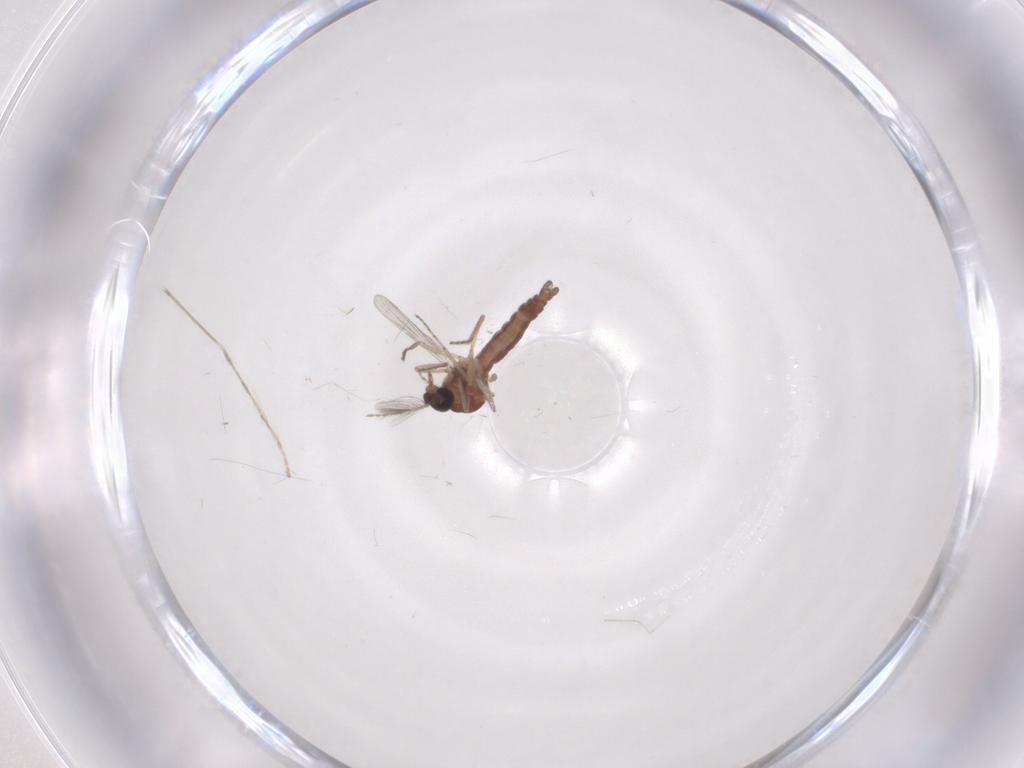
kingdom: Animalia
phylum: Arthropoda
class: Insecta
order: Diptera
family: Ceratopogonidae
